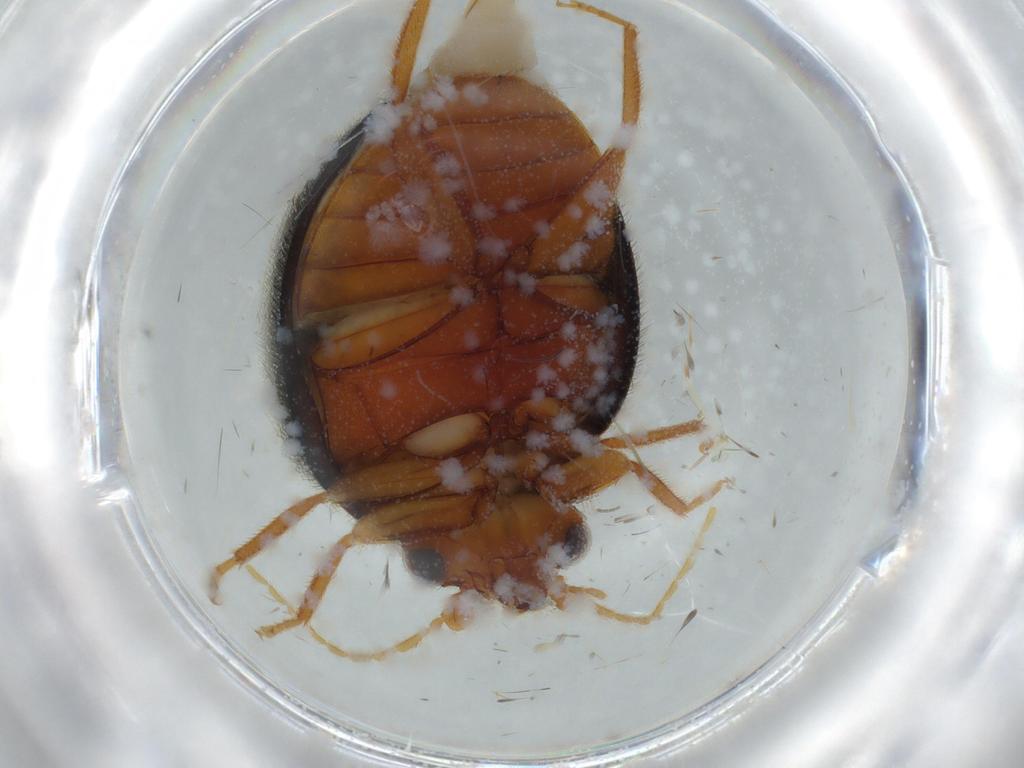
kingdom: Animalia
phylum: Arthropoda
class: Insecta
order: Coleoptera
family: Scirtidae
